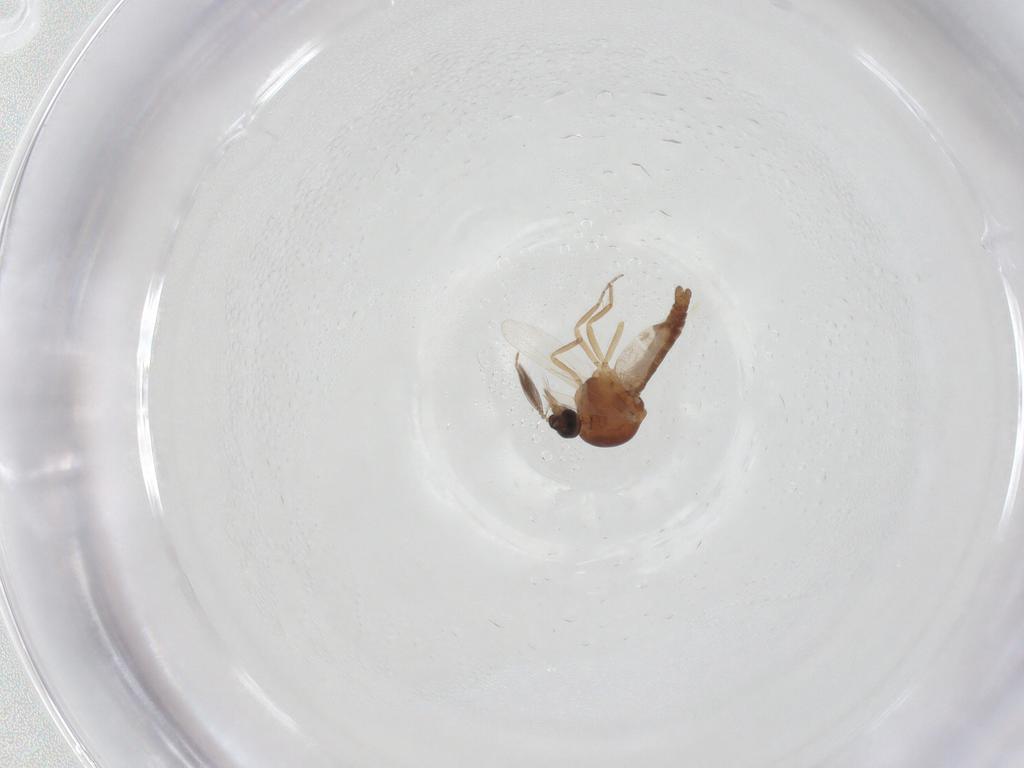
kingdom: Animalia
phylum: Arthropoda
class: Insecta
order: Diptera
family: Ceratopogonidae
